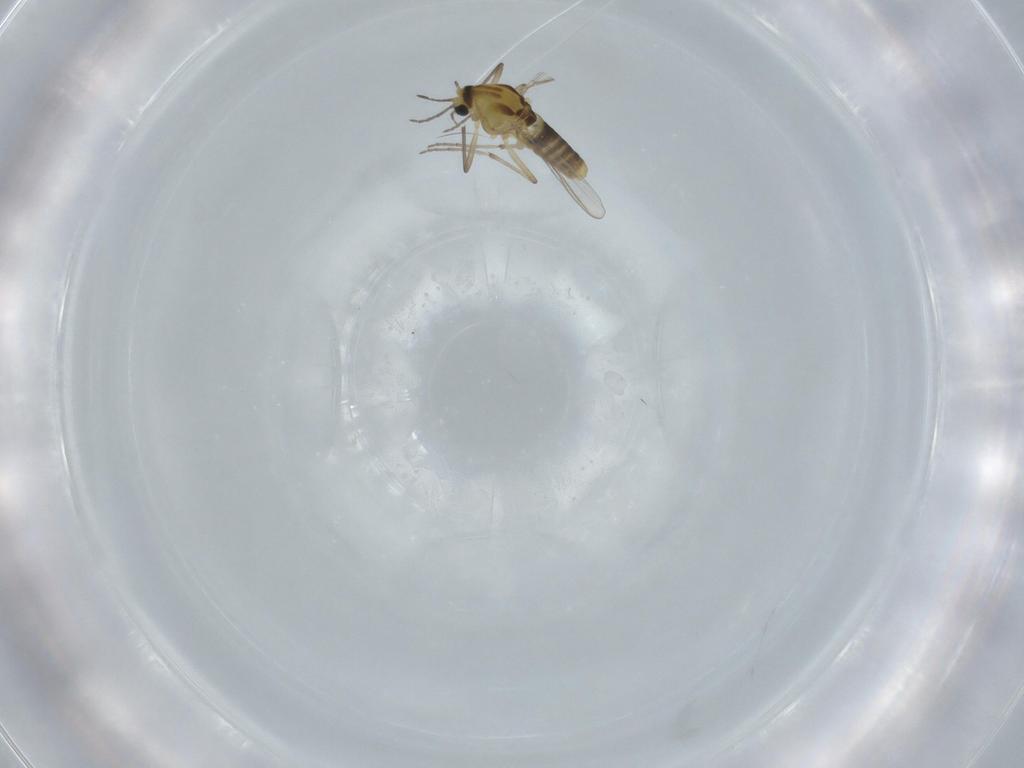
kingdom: Animalia
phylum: Arthropoda
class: Insecta
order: Diptera
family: Chironomidae
